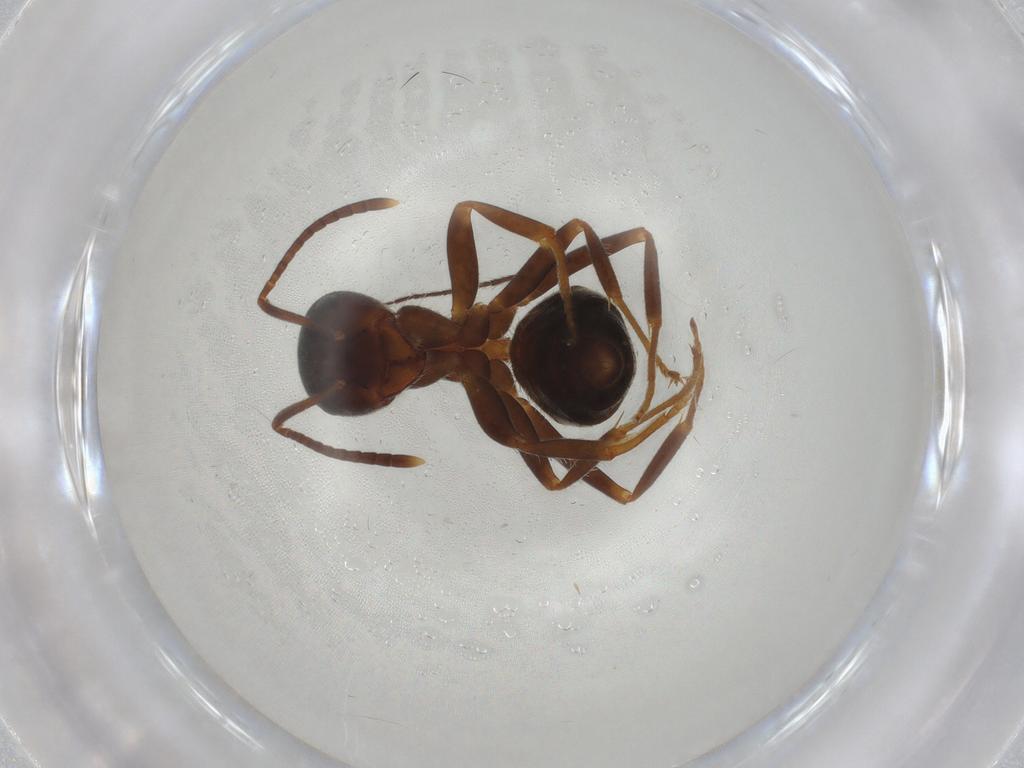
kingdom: Animalia
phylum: Arthropoda
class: Insecta
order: Hymenoptera
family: Formicidae
